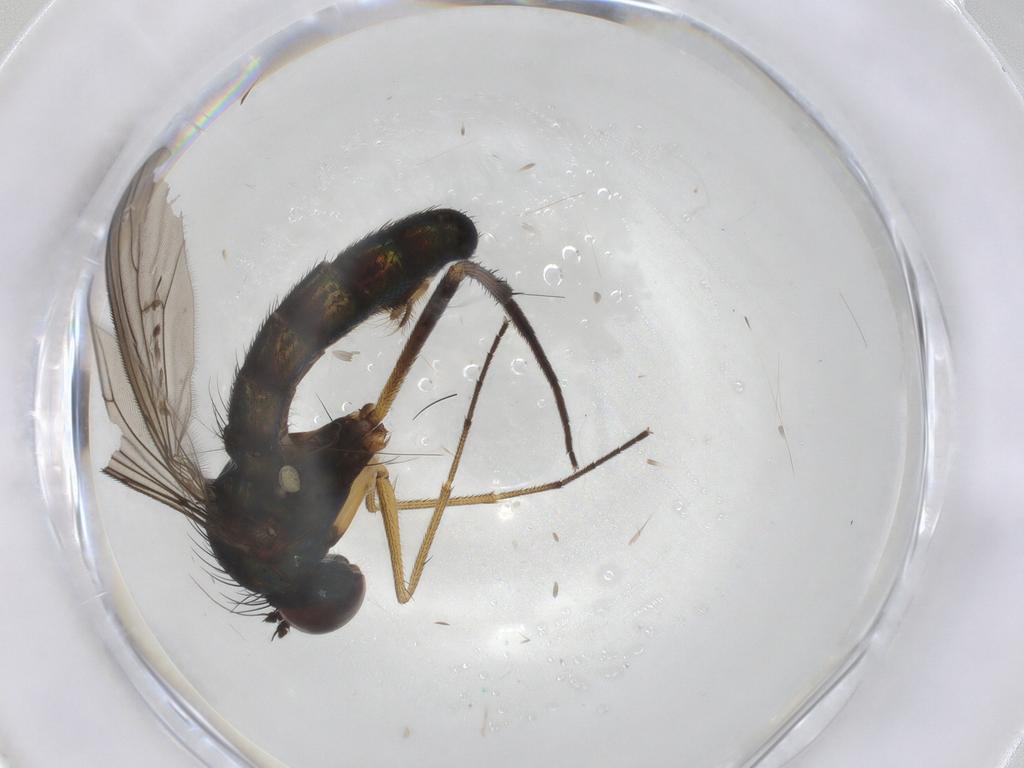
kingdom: Animalia
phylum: Arthropoda
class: Insecta
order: Diptera
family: Dolichopodidae
